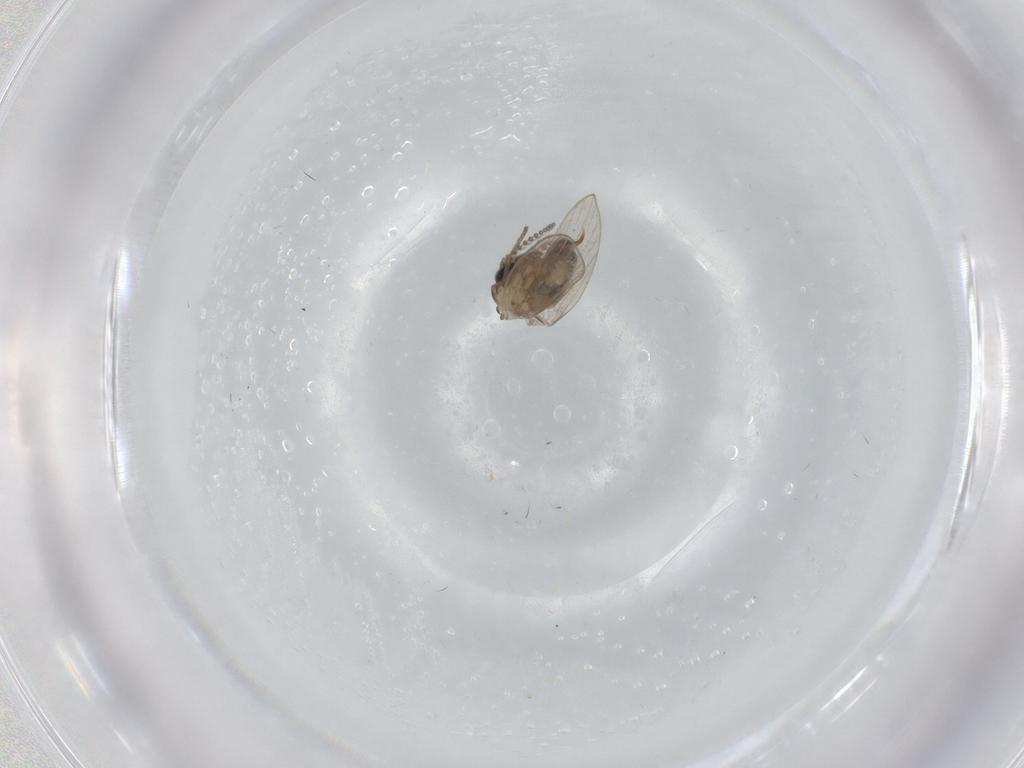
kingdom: Animalia
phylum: Arthropoda
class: Insecta
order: Diptera
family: Psychodidae
